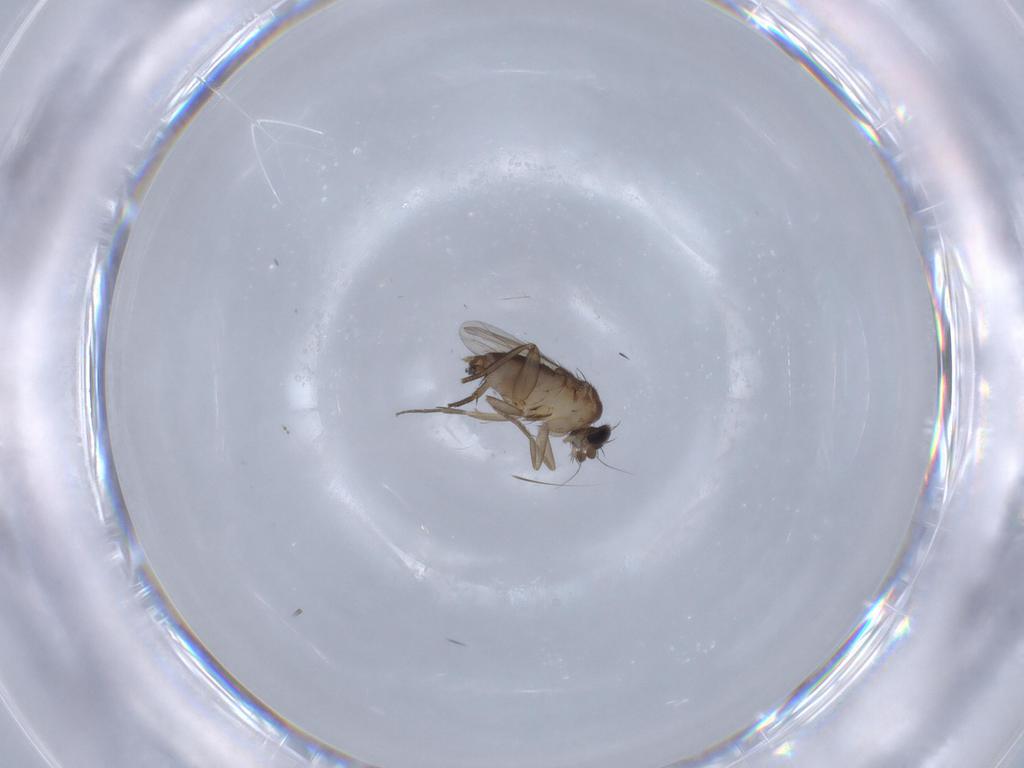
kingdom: Animalia
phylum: Arthropoda
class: Insecta
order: Diptera
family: Phoridae
